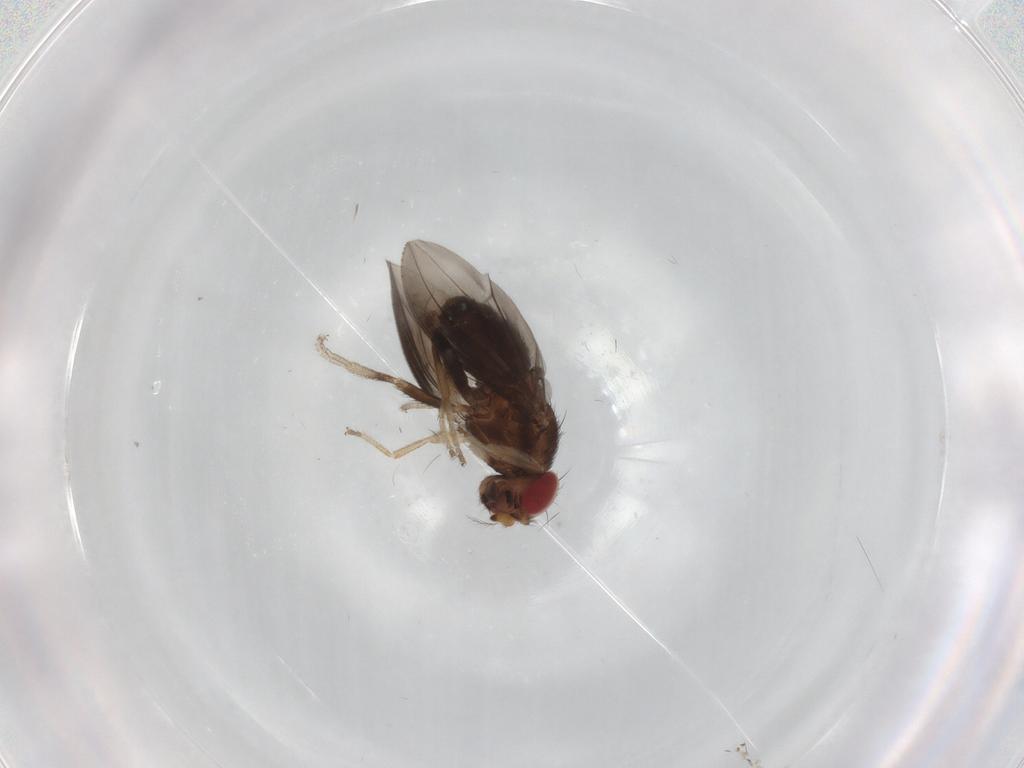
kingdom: Animalia
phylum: Arthropoda
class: Insecta
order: Diptera
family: Drosophilidae
